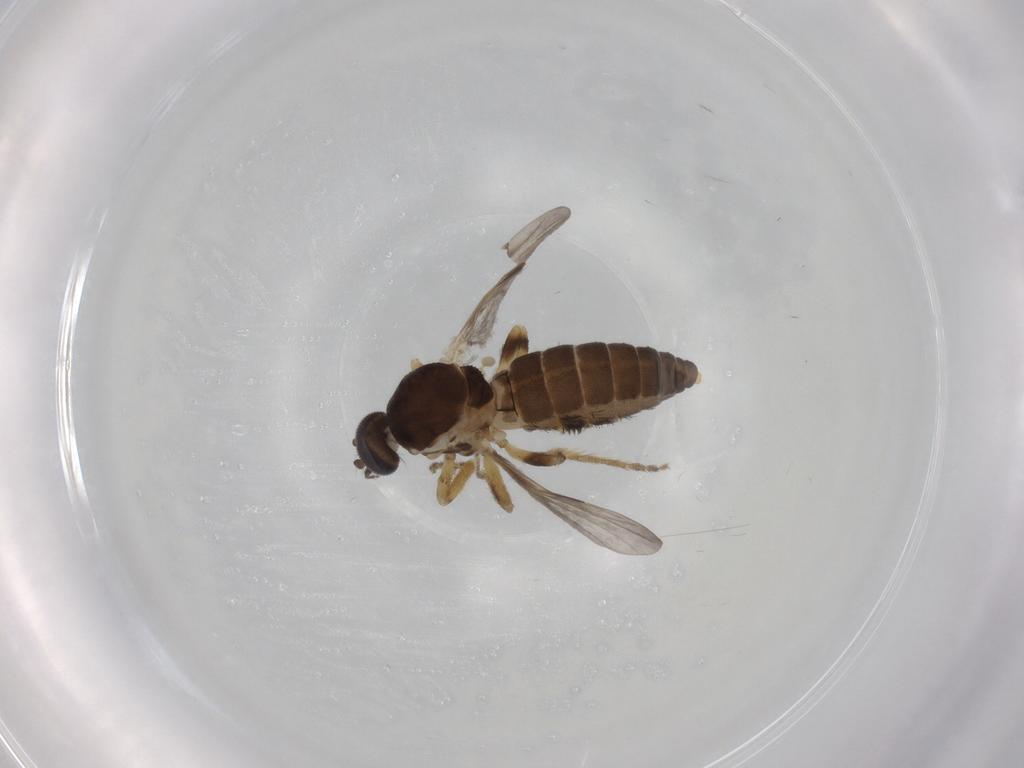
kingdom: Animalia
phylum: Arthropoda
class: Insecta
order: Diptera
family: Ceratopogonidae
